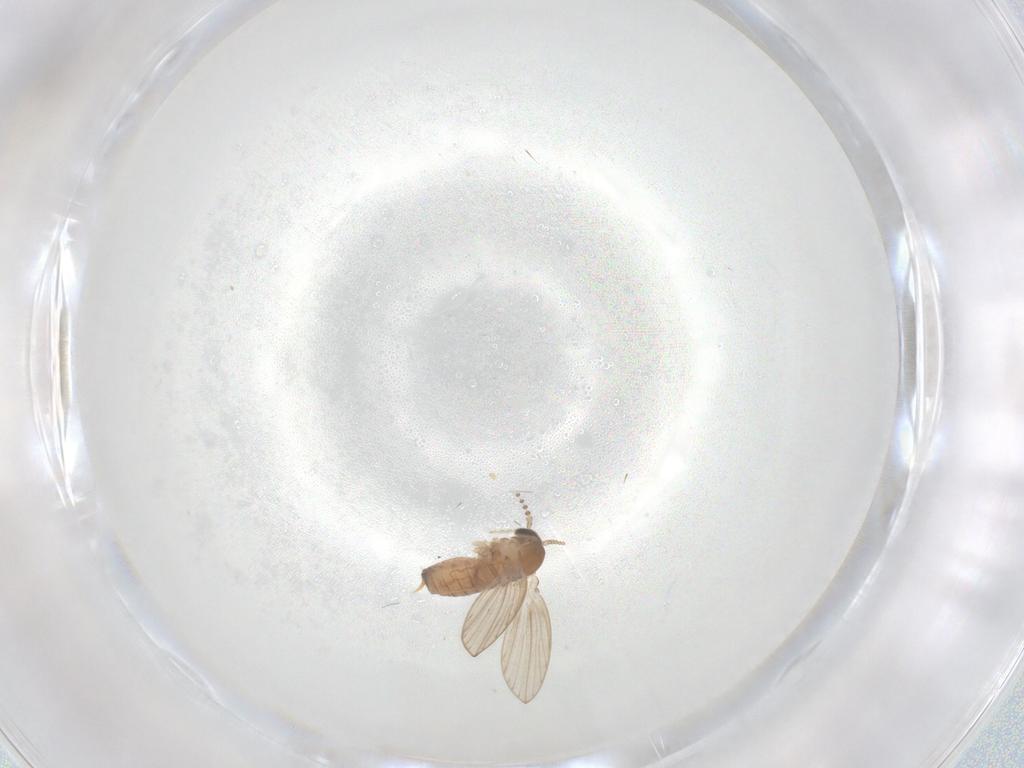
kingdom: Animalia
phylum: Arthropoda
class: Insecta
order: Diptera
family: Psychodidae
